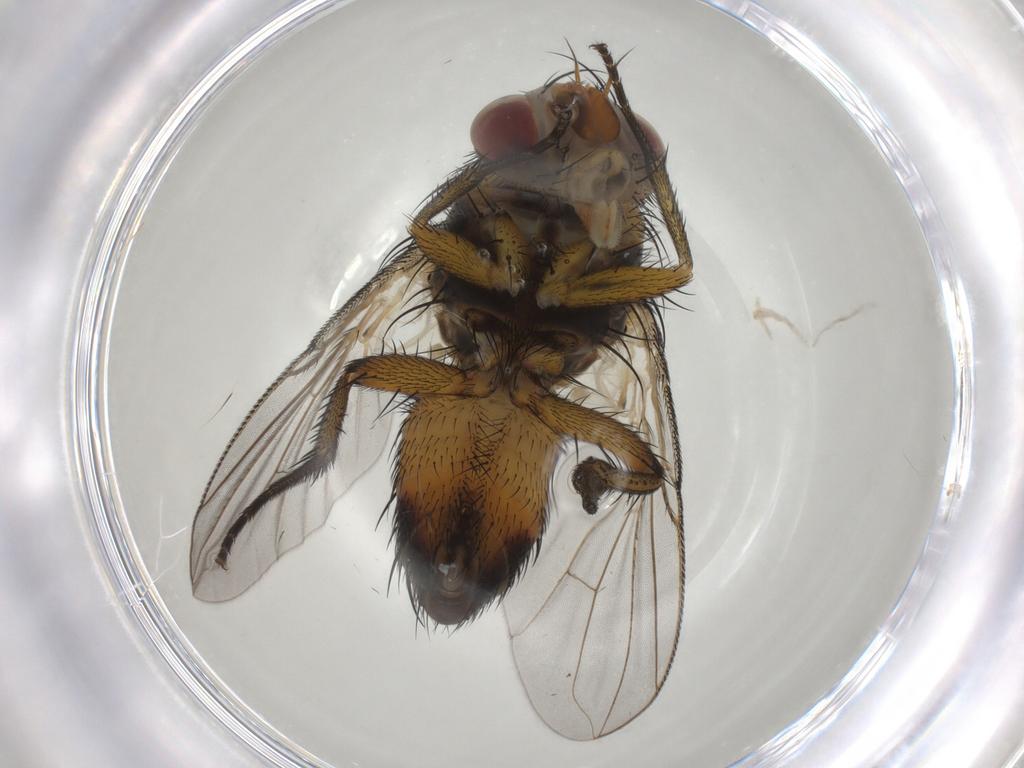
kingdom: Animalia
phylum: Arthropoda
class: Insecta
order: Diptera
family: Tachinidae
